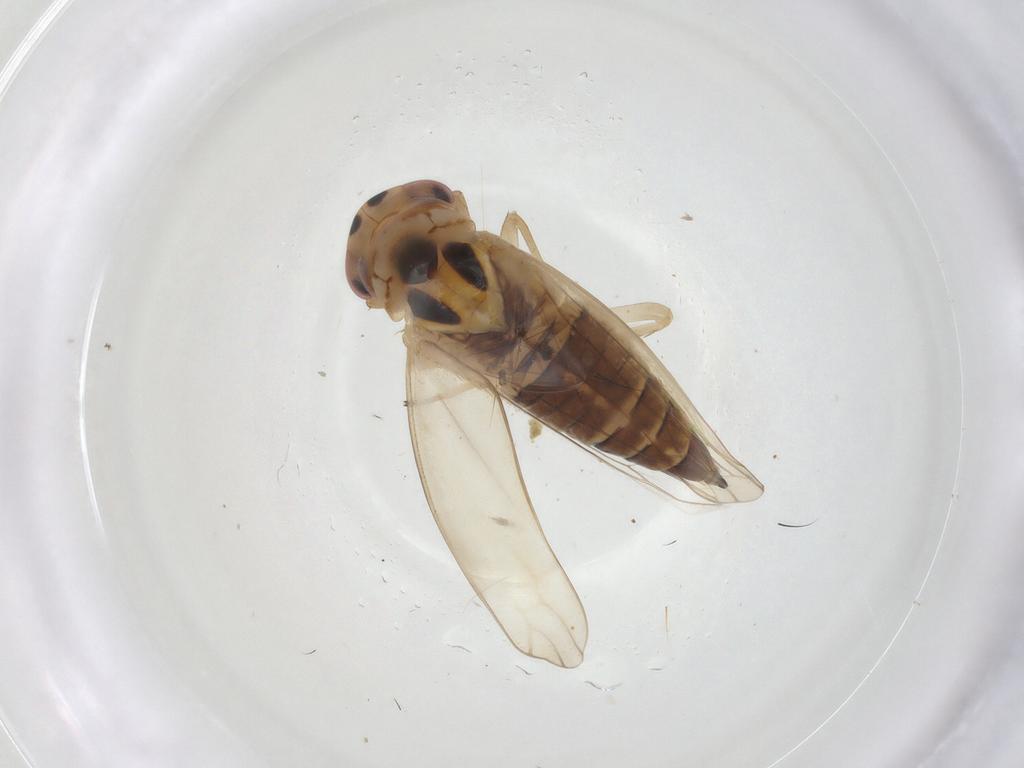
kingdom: Animalia
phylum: Arthropoda
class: Insecta
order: Hemiptera
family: Cicadellidae
